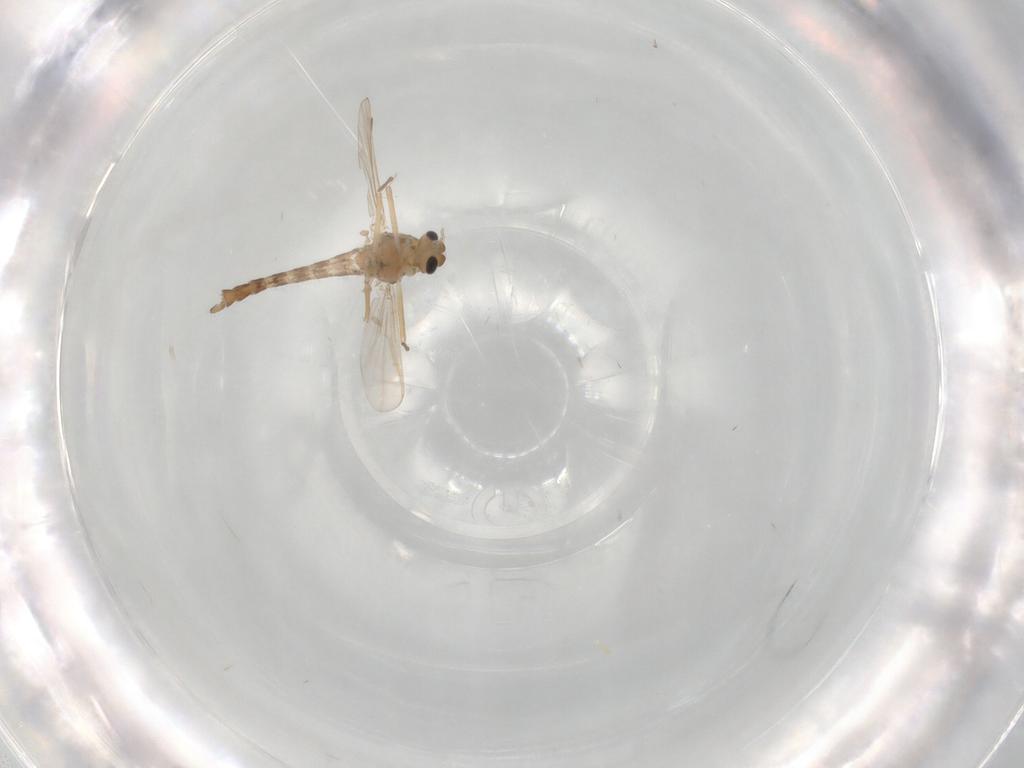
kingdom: Animalia
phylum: Arthropoda
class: Insecta
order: Diptera
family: Chironomidae
